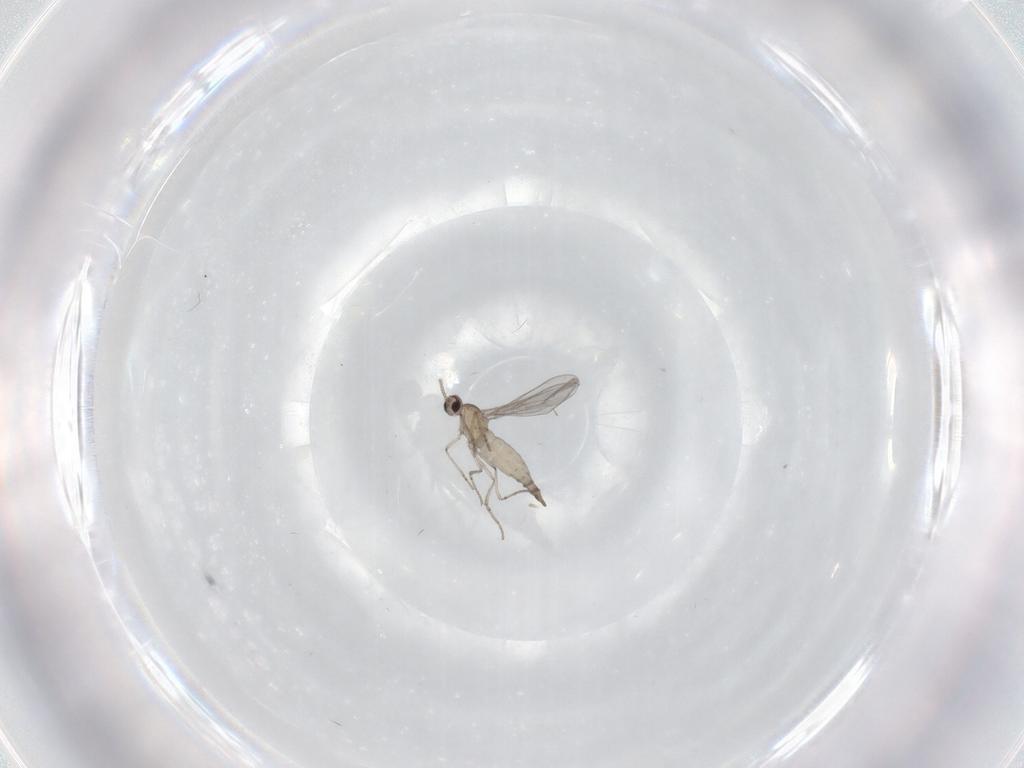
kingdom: Animalia
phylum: Arthropoda
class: Insecta
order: Diptera
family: Cecidomyiidae
